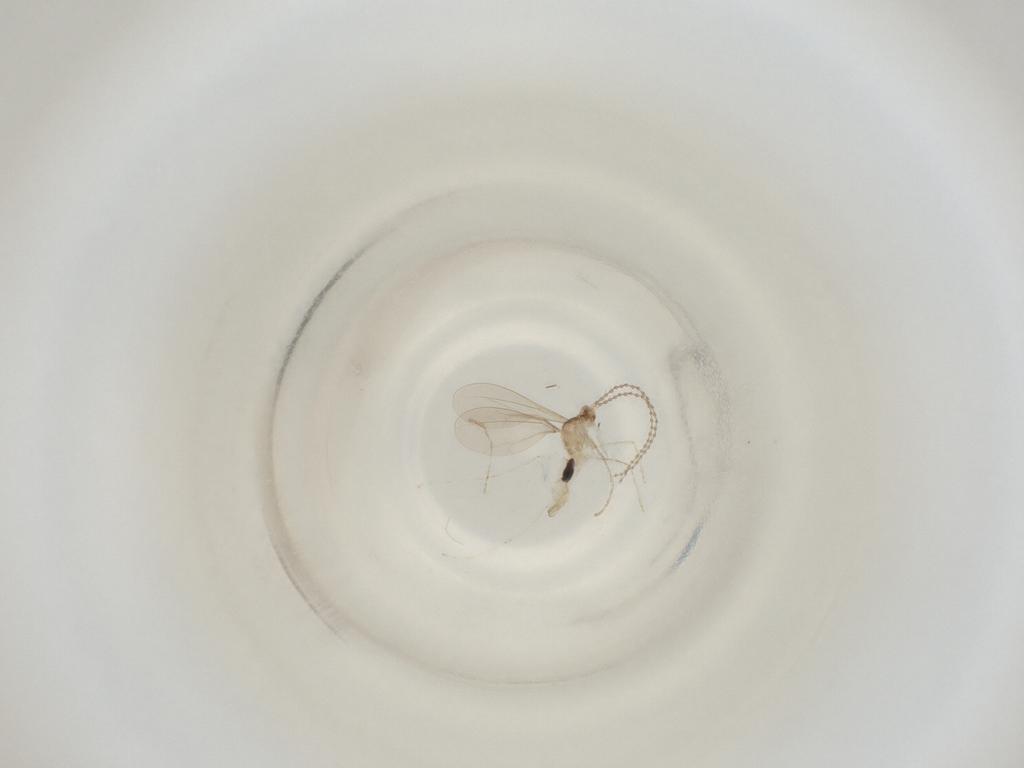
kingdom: Animalia
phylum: Arthropoda
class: Insecta
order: Diptera
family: Cecidomyiidae
